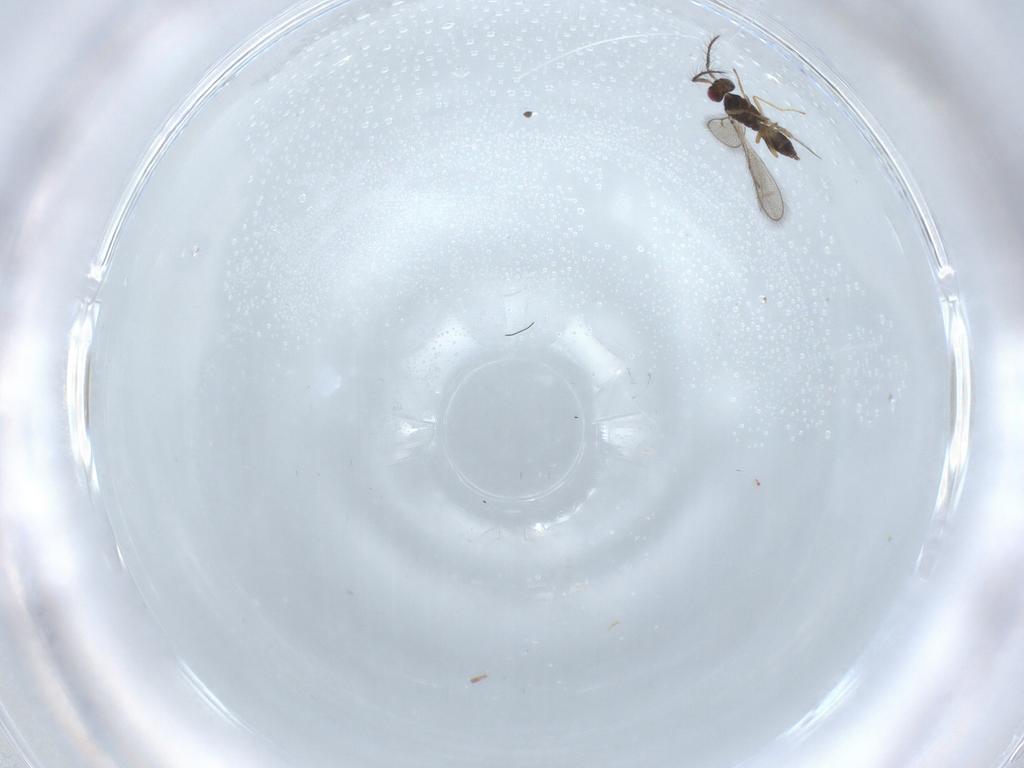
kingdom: Animalia
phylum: Arthropoda
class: Insecta
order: Hymenoptera
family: Eulophidae
